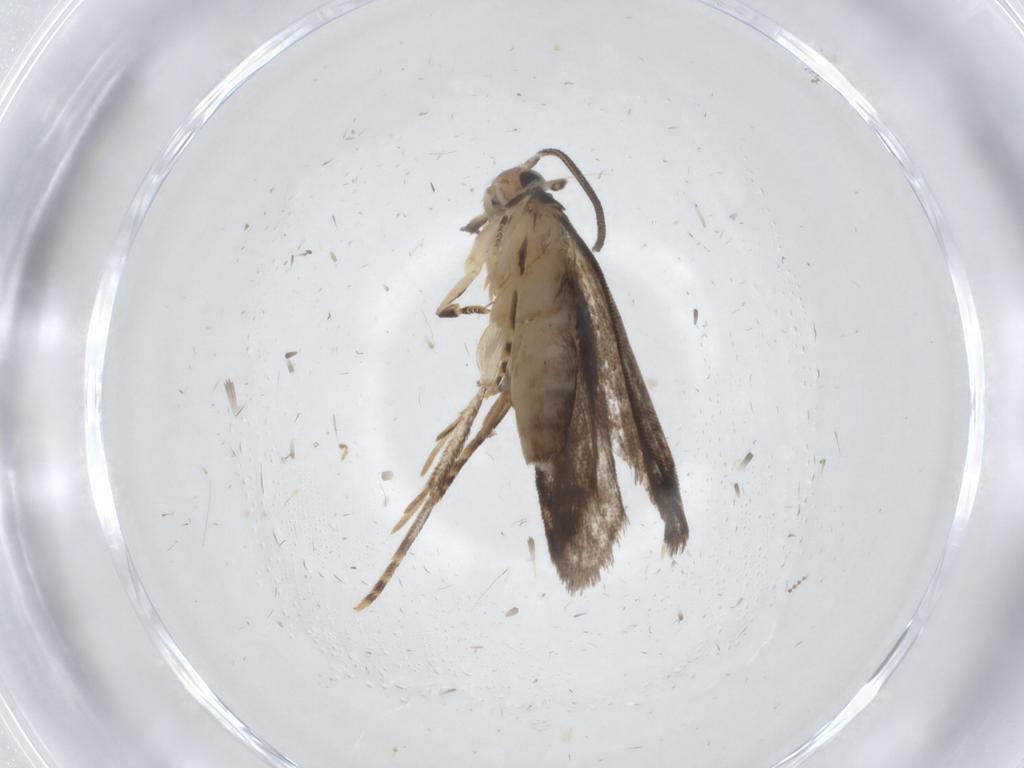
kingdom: Animalia
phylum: Arthropoda
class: Insecta
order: Lepidoptera
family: Dryadaulidae
